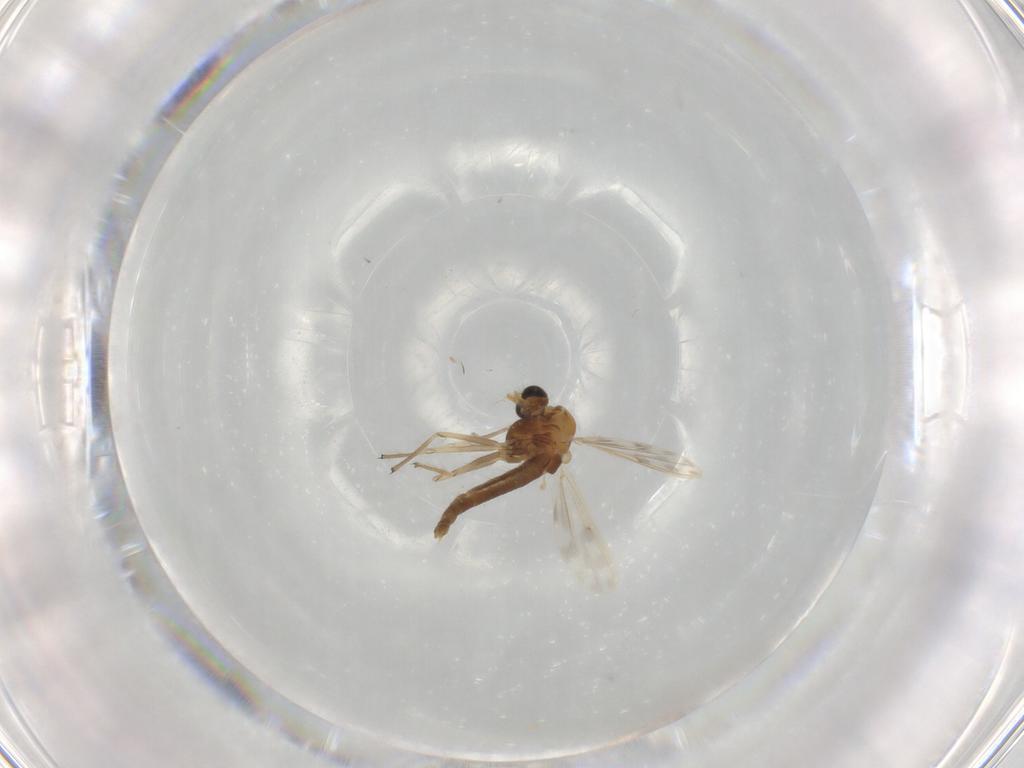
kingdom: Animalia
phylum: Arthropoda
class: Insecta
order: Diptera
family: Chironomidae
